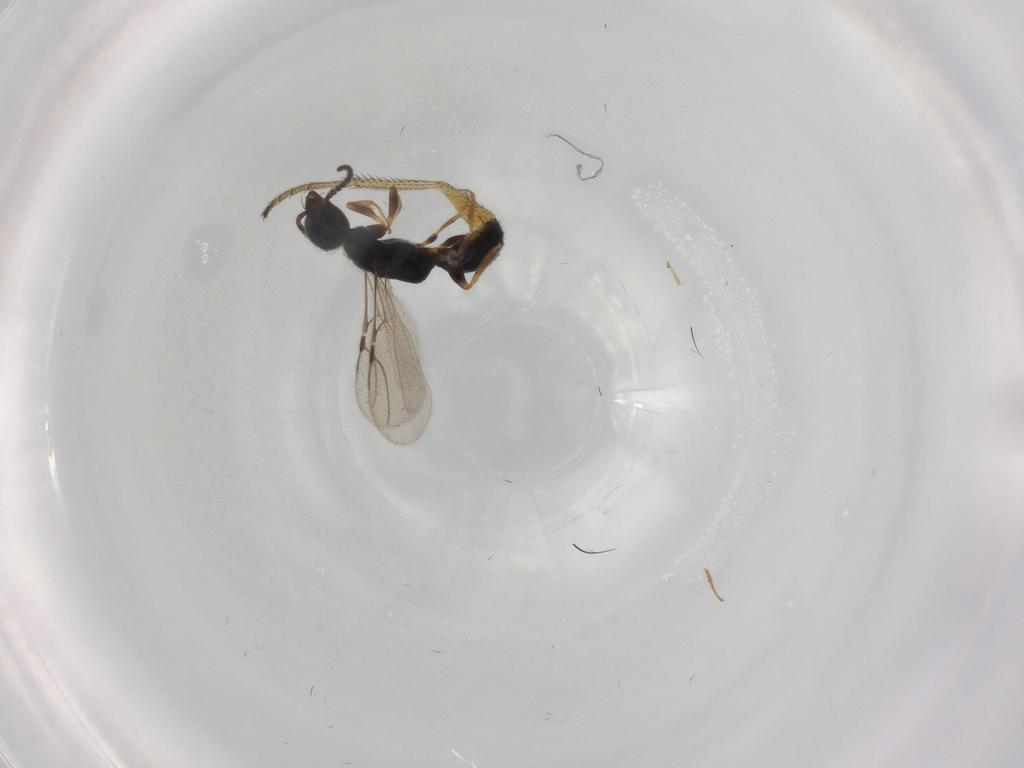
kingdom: Animalia
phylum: Arthropoda
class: Insecta
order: Hymenoptera
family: Bethylidae
